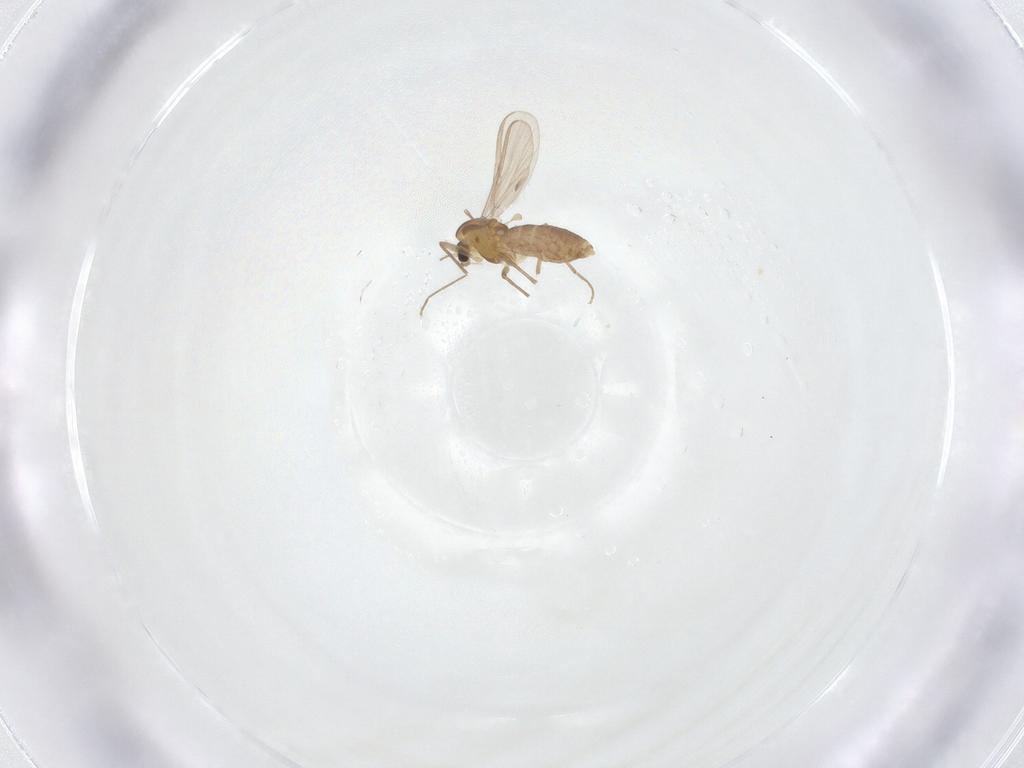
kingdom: Animalia
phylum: Arthropoda
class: Insecta
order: Diptera
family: Chironomidae
